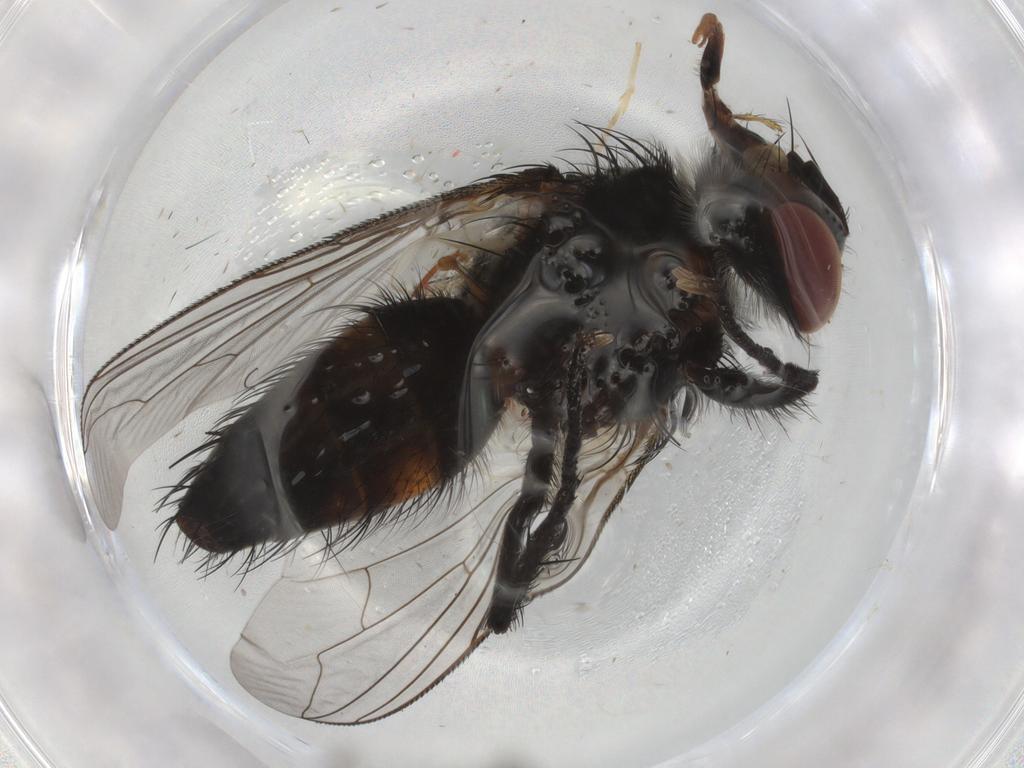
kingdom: Animalia
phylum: Arthropoda
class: Insecta
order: Diptera
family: Tachinidae
